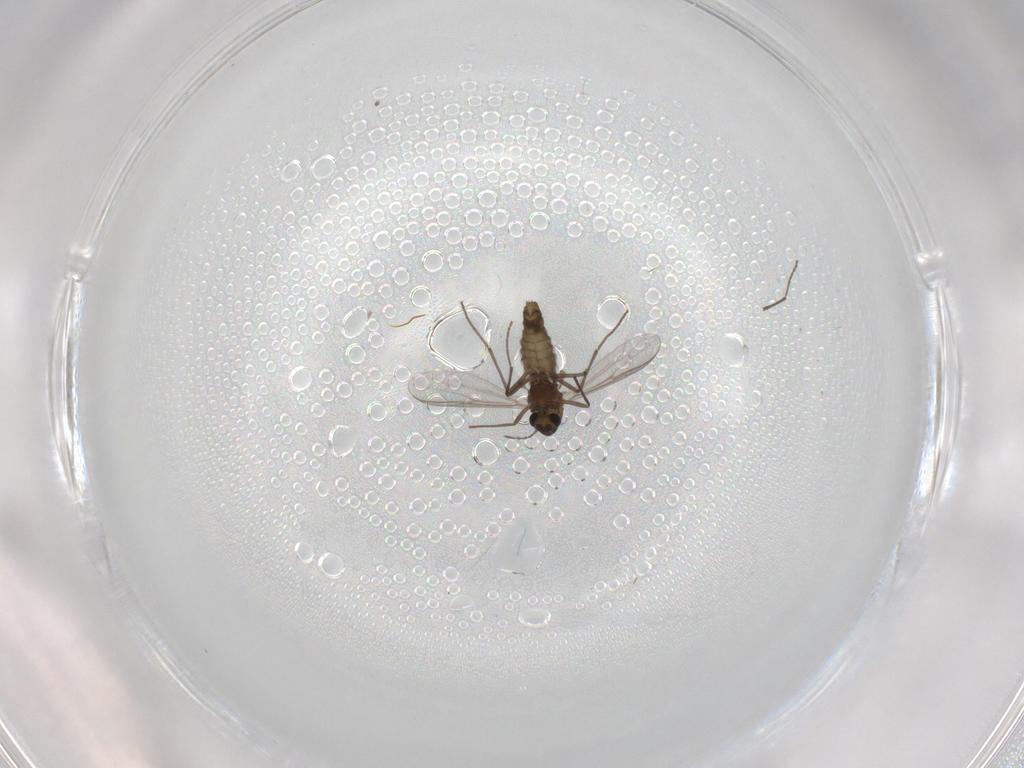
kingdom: Animalia
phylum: Arthropoda
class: Insecta
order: Diptera
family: Chironomidae
